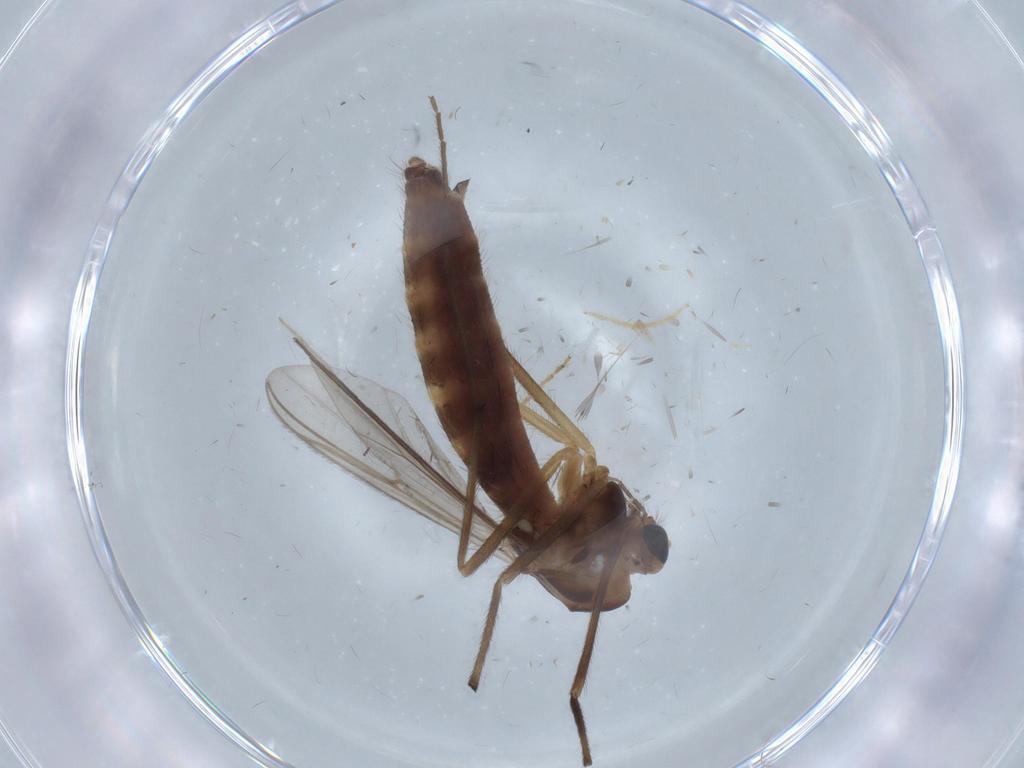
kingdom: Animalia
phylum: Arthropoda
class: Insecta
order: Diptera
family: Chironomidae
